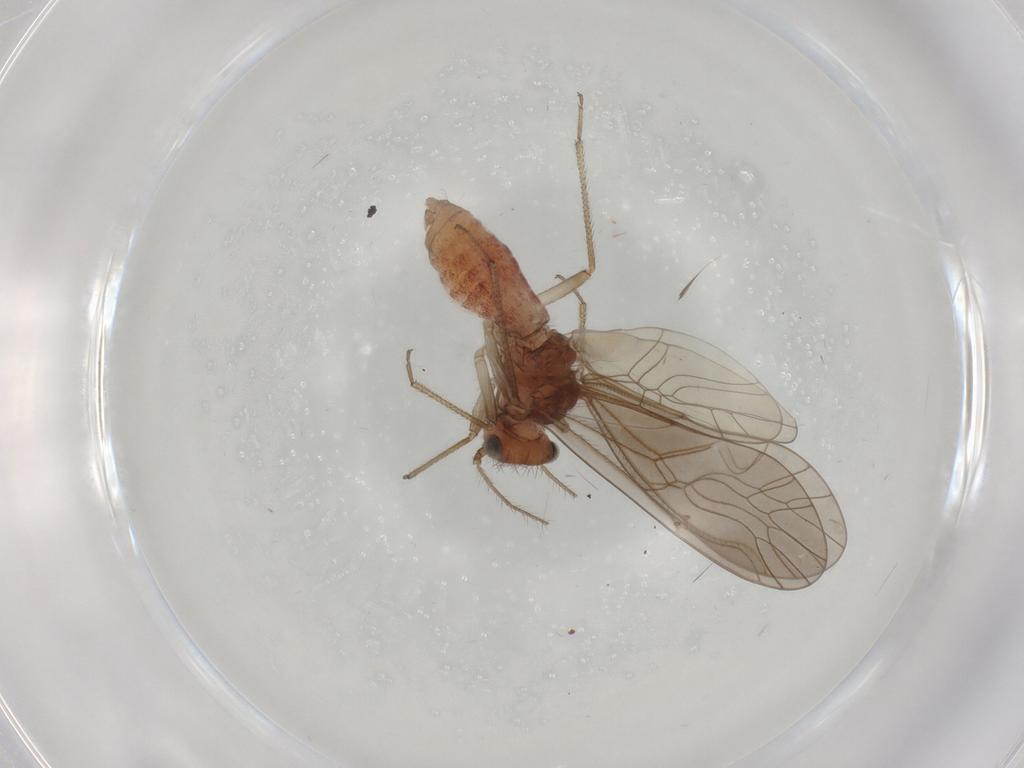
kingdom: Animalia
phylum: Arthropoda
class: Insecta
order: Psocodea
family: Caeciliusidae
